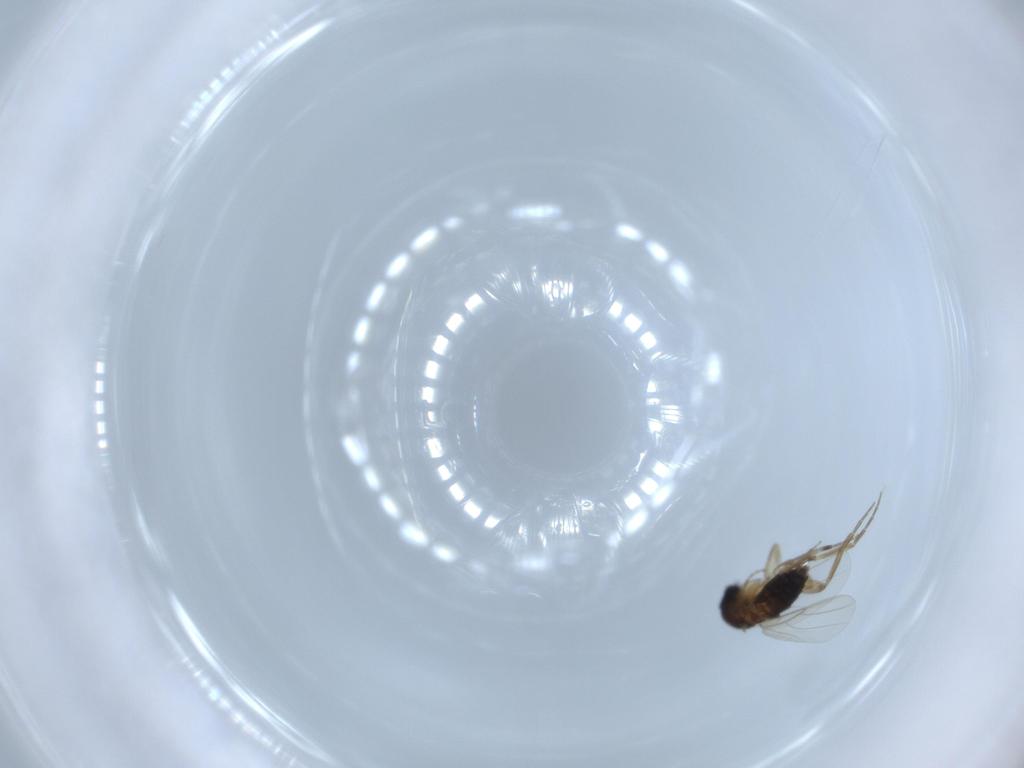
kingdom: Animalia
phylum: Arthropoda
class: Insecta
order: Diptera
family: Phoridae
